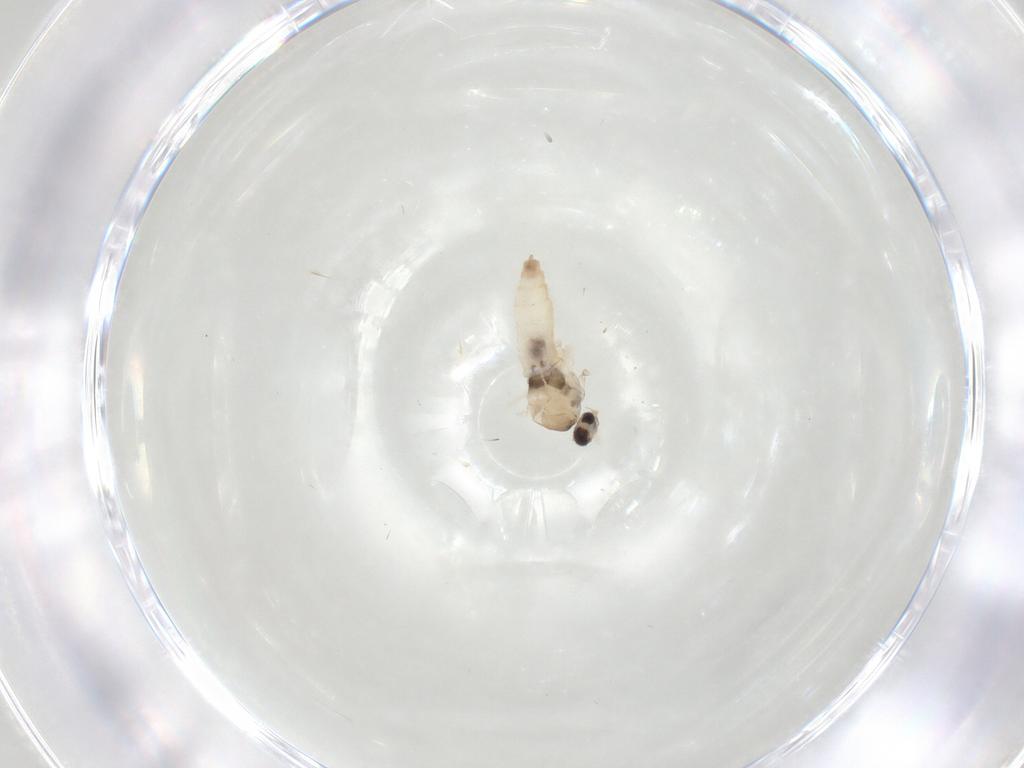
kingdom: Animalia
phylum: Arthropoda
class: Insecta
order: Diptera
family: Cecidomyiidae
